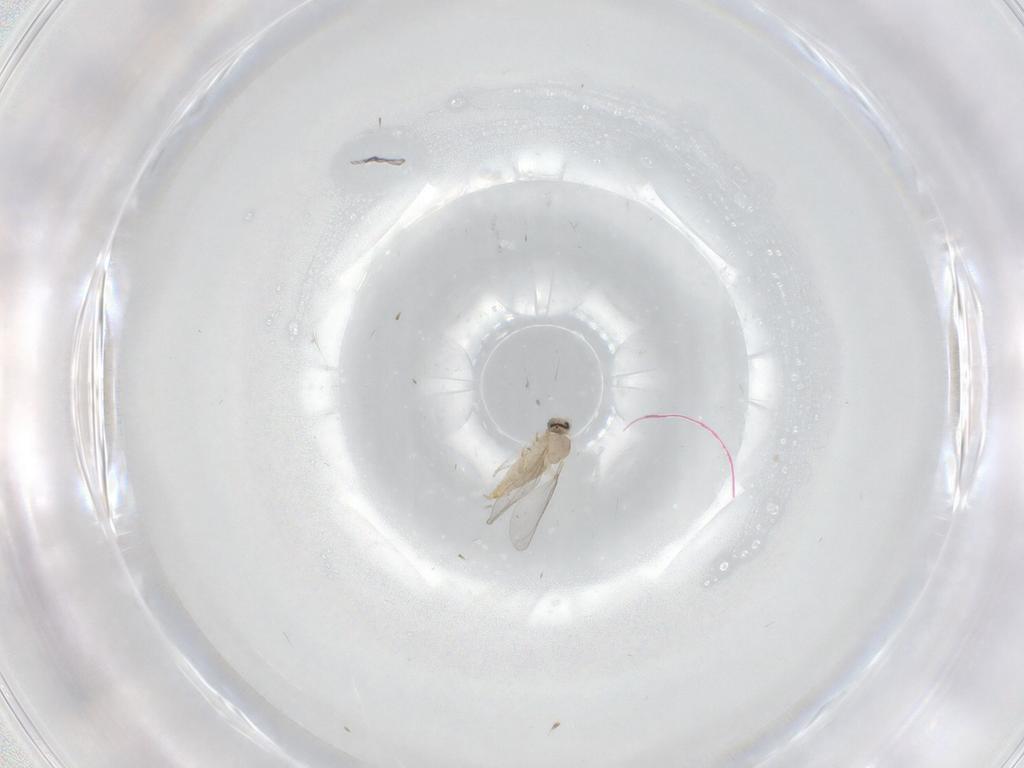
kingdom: Animalia
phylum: Arthropoda
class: Insecta
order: Diptera
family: Cecidomyiidae
